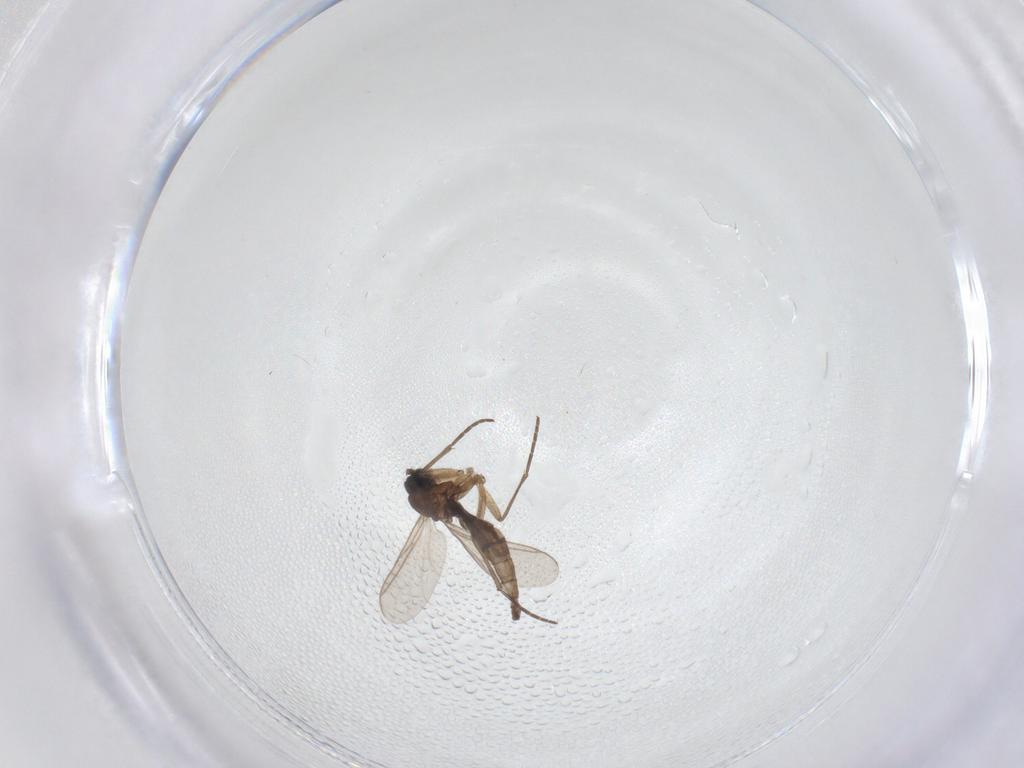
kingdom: Animalia
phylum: Arthropoda
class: Insecta
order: Diptera
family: Sciaridae
